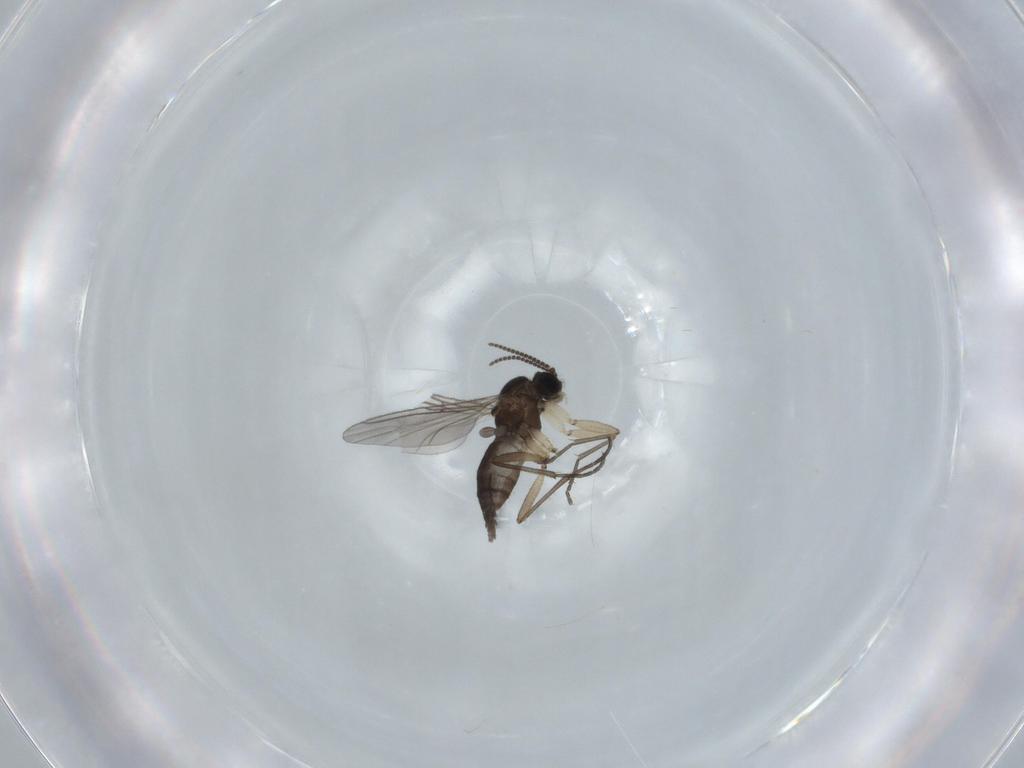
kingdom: Animalia
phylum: Arthropoda
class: Insecta
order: Diptera
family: Sciaridae
